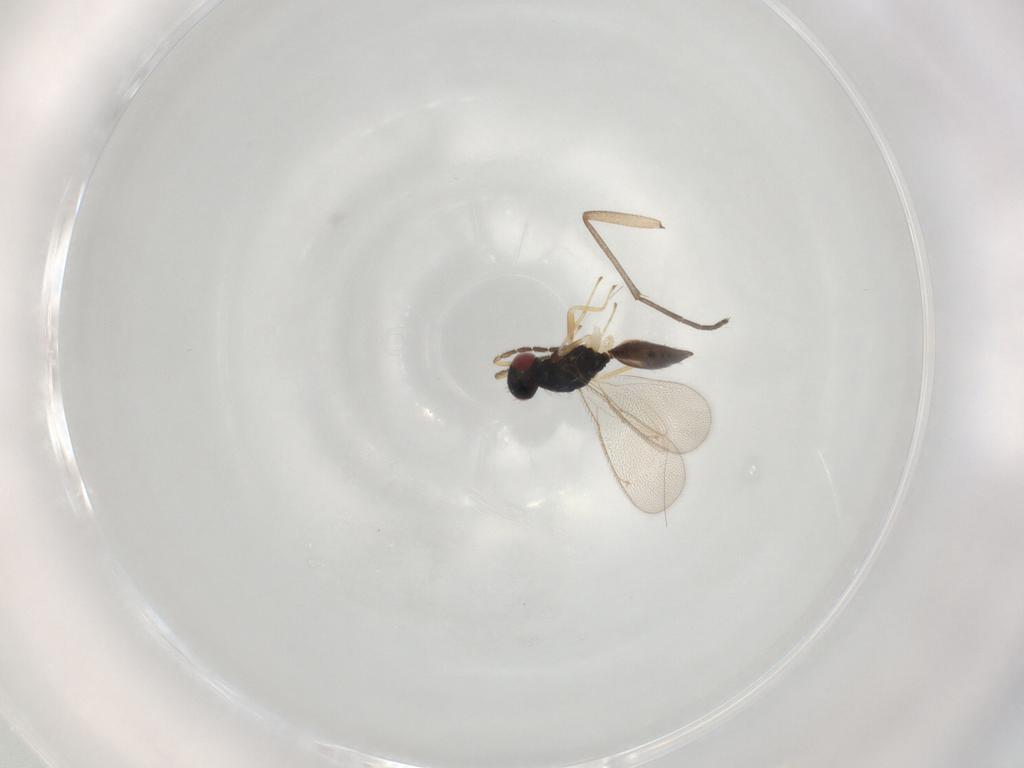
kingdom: Animalia
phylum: Arthropoda
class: Insecta
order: Hymenoptera
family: Eulophidae
